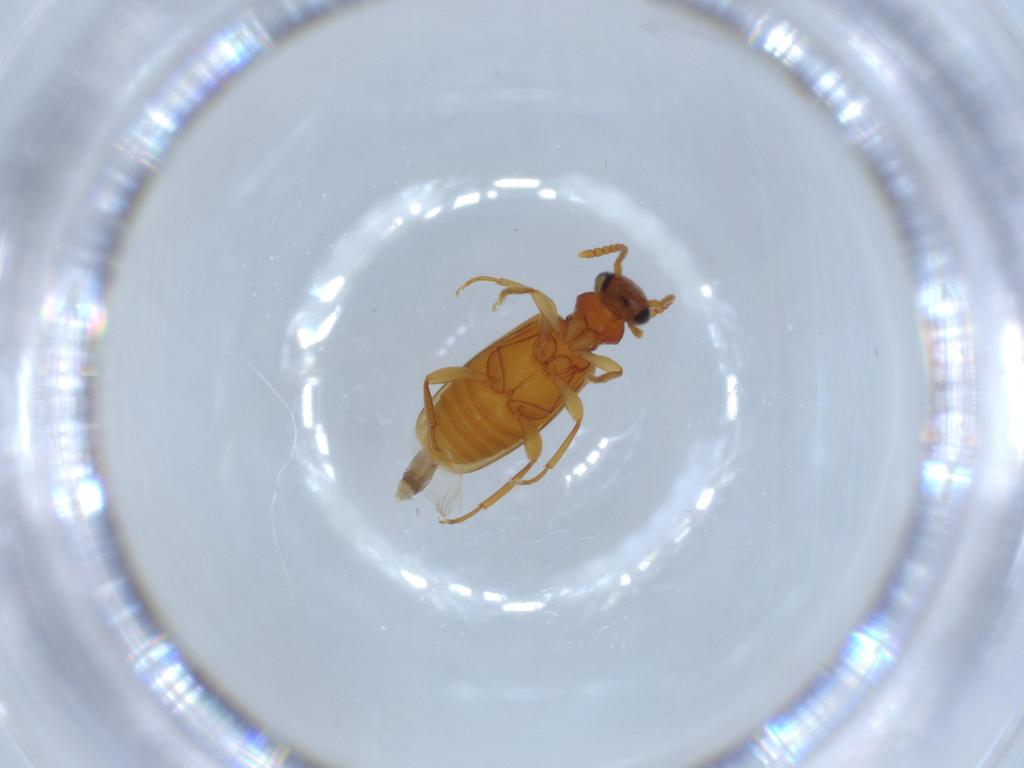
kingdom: Animalia
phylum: Arthropoda
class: Insecta
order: Coleoptera
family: Anthicidae
